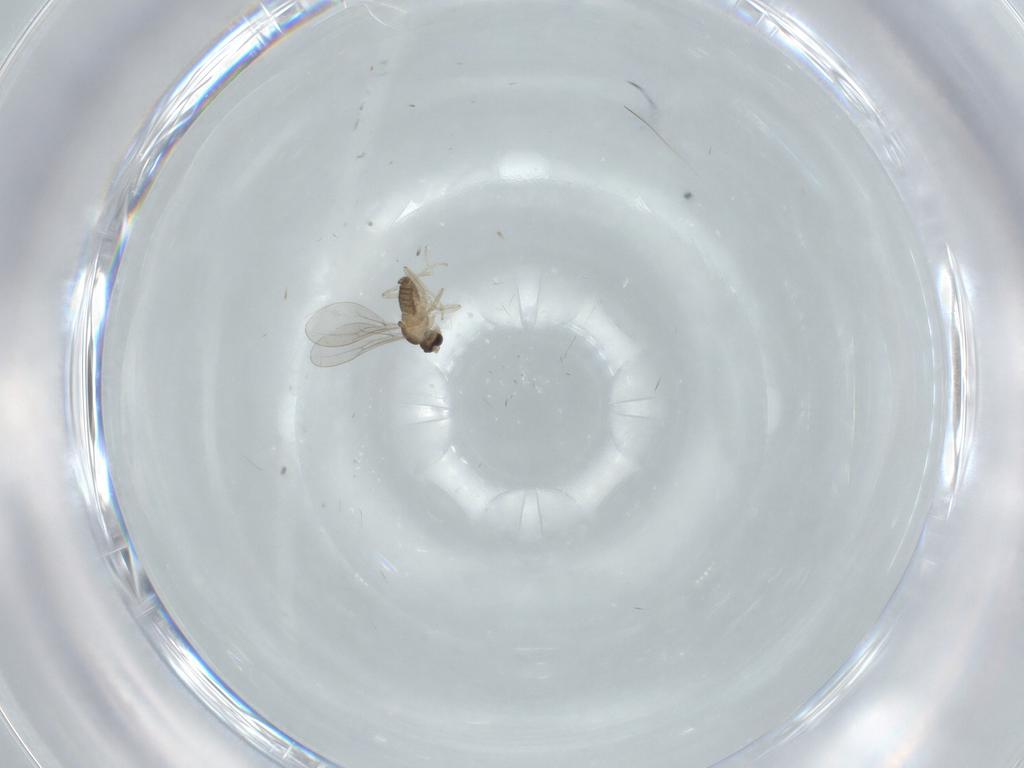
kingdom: Animalia
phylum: Arthropoda
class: Insecta
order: Diptera
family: Cecidomyiidae
